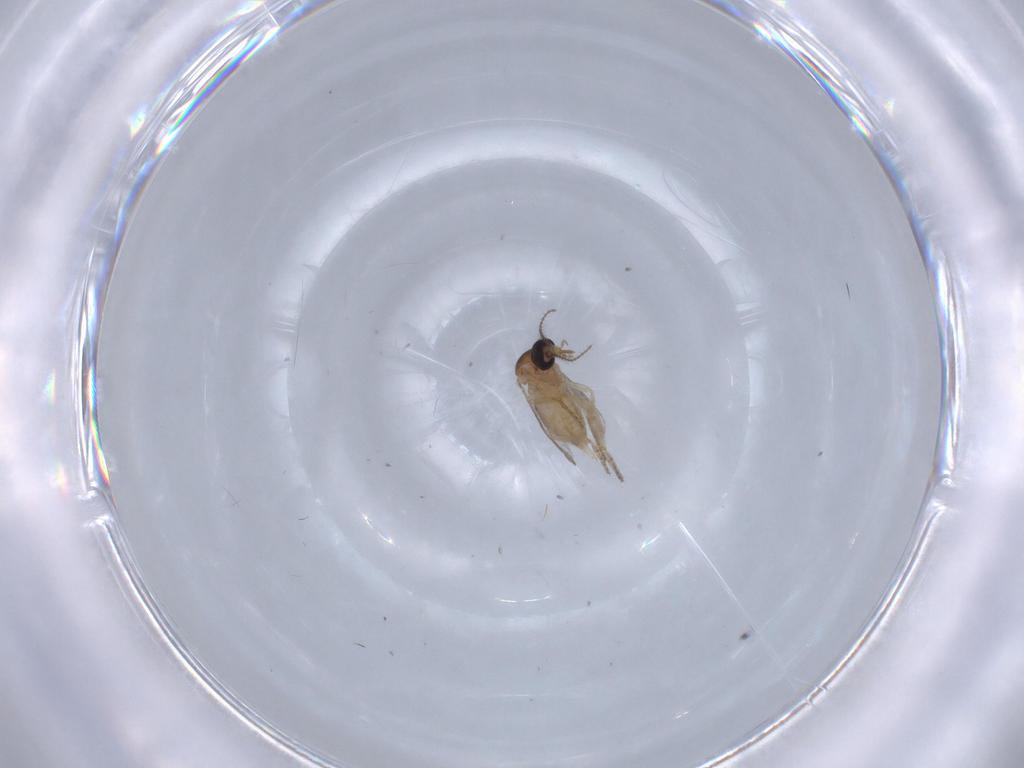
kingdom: Animalia
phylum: Arthropoda
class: Insecta
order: Diptera
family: Ceratopogonidae
